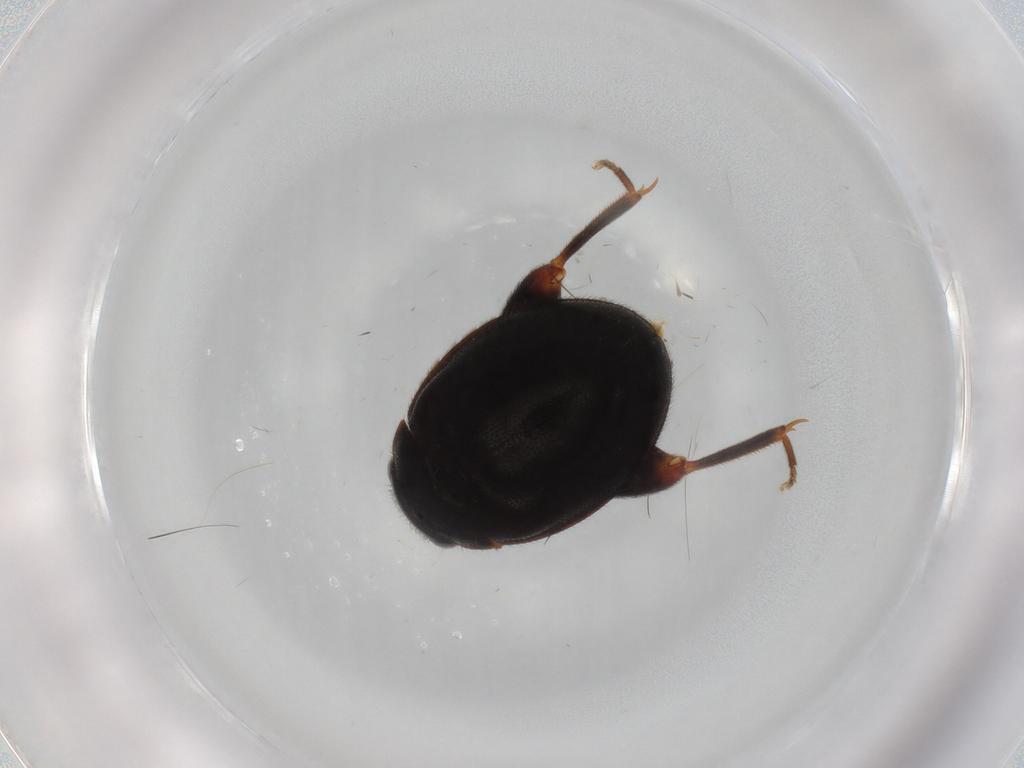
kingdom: Animalia
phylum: Arthropoda
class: Insecta
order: Coleoptera
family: Scirtidae
